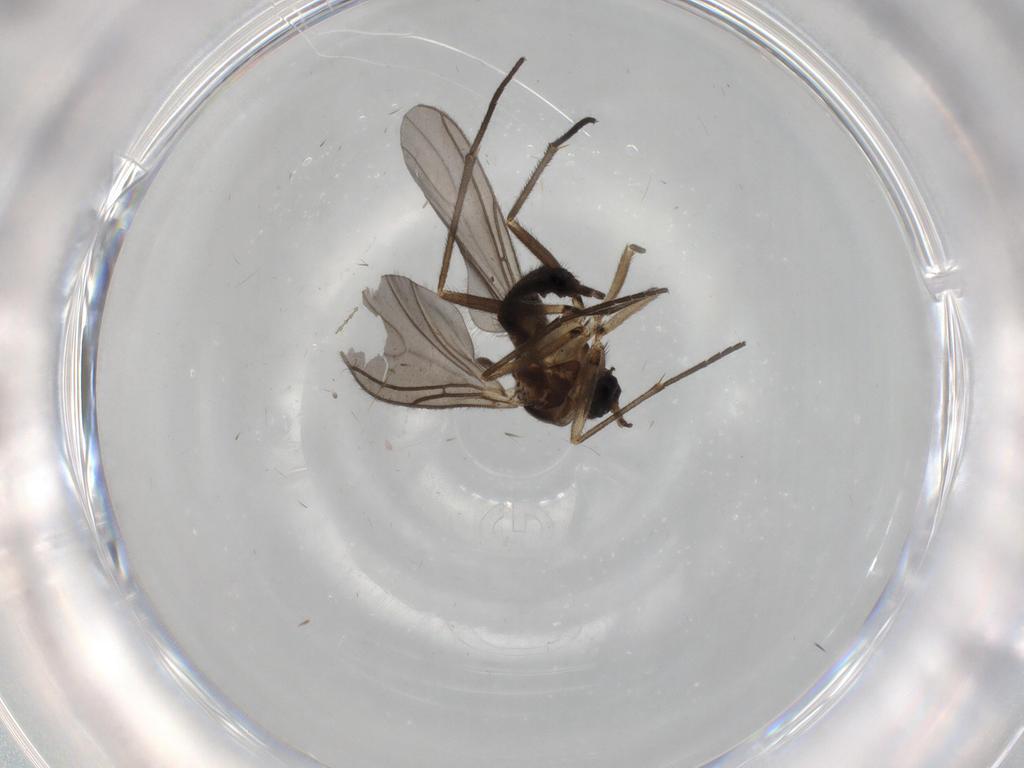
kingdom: Animalia
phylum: Arthropoda
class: Insecta
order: Diptera
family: Sciaridae
